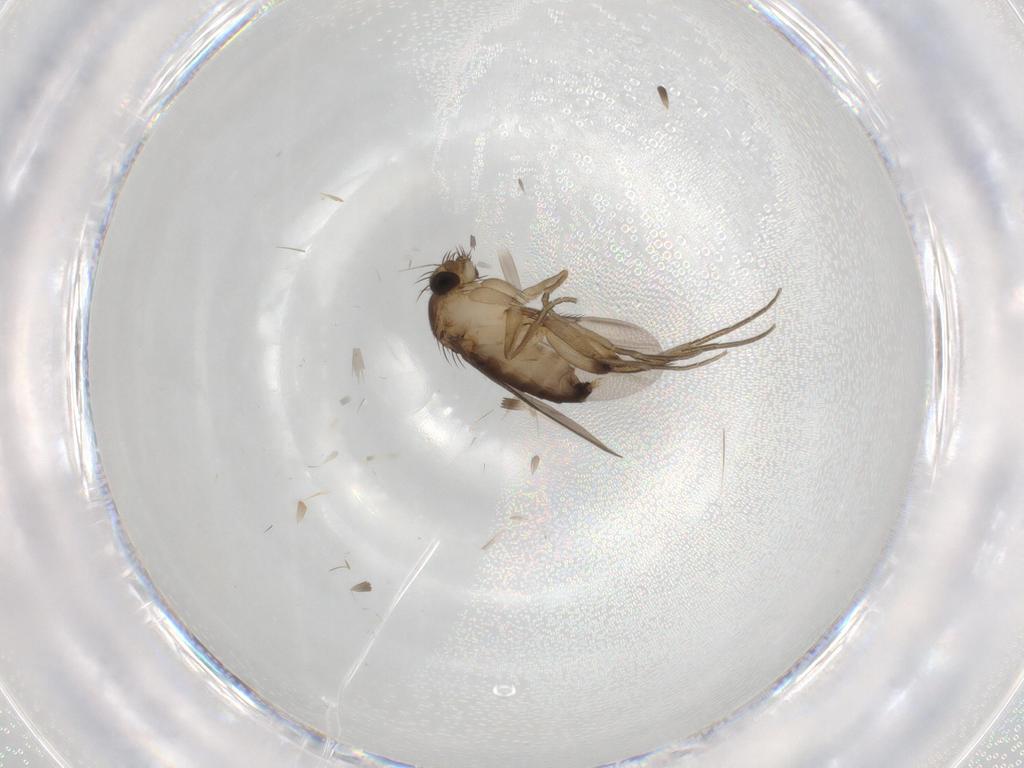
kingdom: Animalia
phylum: Arthropoda
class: Insecta
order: Diptera
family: Phoridae
